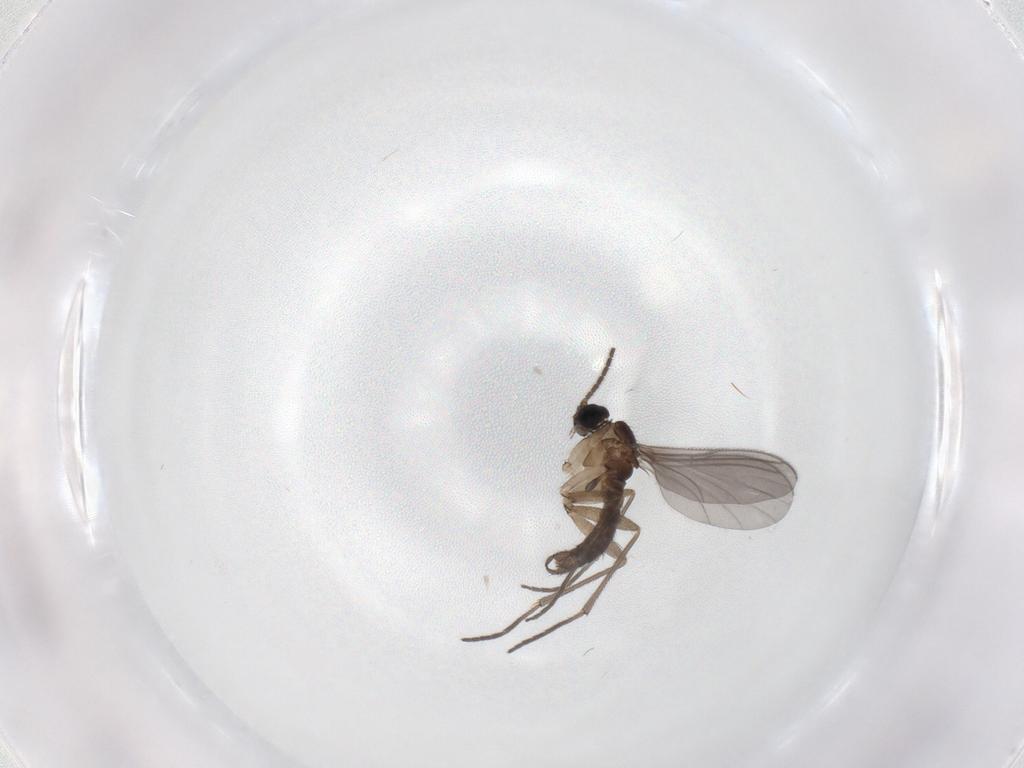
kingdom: Animalia
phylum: Arthropoda
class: Insecta
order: Diptera
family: Sciaridae
